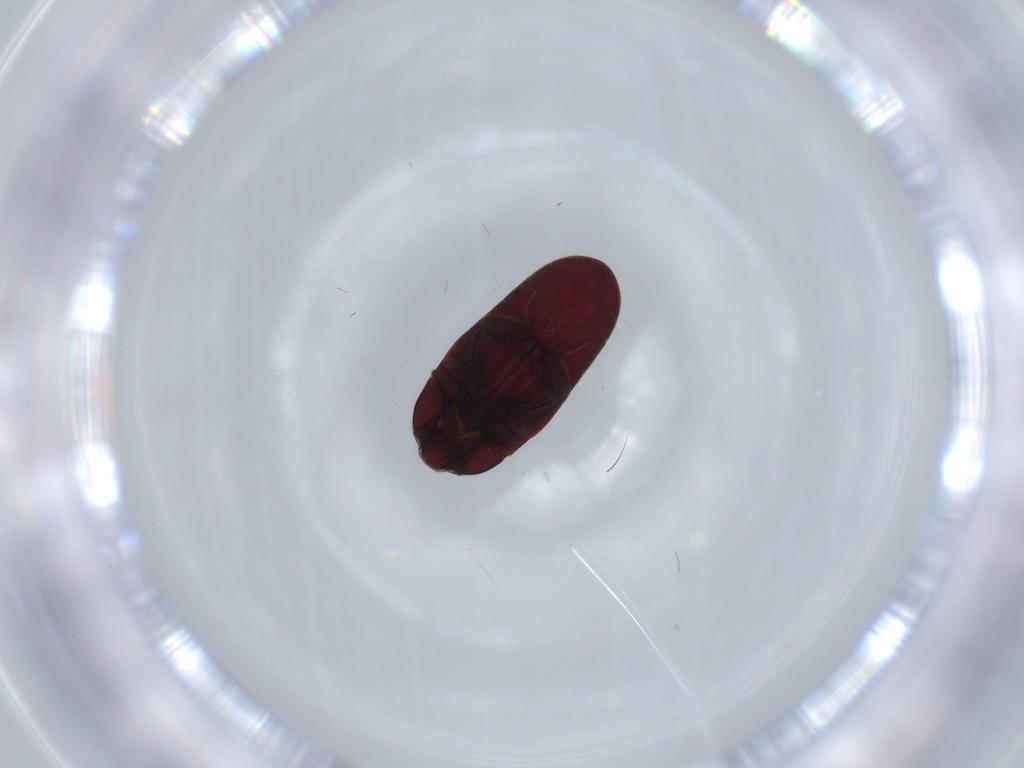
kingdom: Animalia
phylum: Arthropoda
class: Insecta
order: Coleoptera
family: Throscidae
